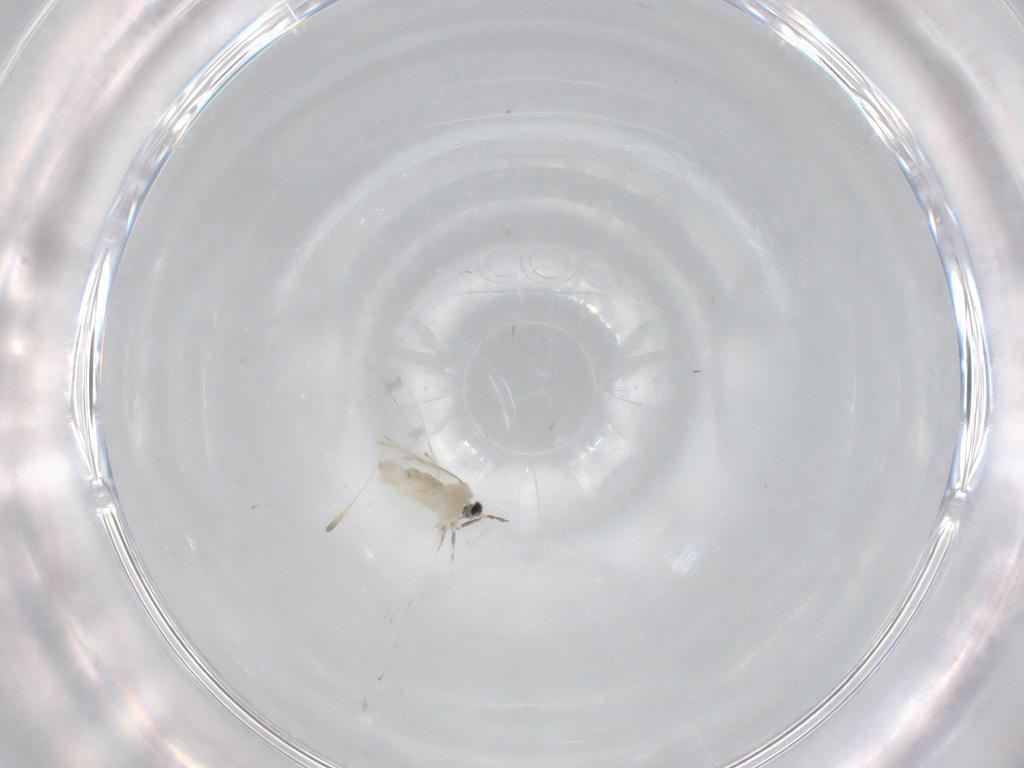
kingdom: Animalia
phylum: Arthropoda
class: Insecta
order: Diptera
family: Cecidomyiidae
